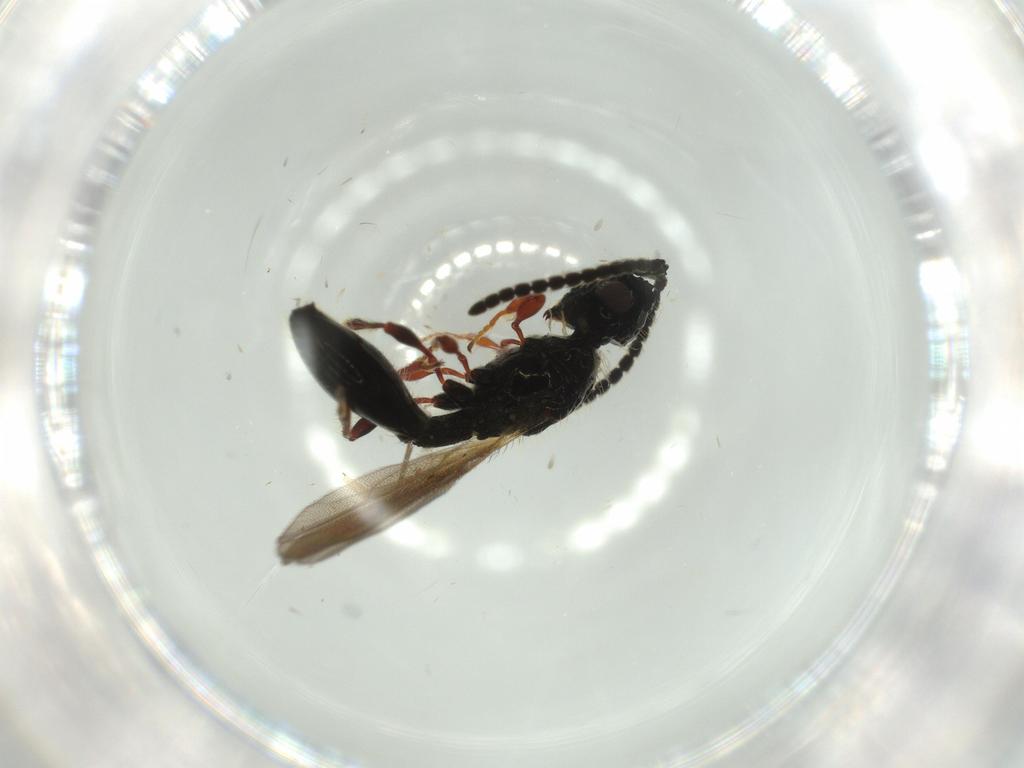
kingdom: Animalia
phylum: Arthropoda
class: Insecta
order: Hymenoptera
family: Diapriidae
